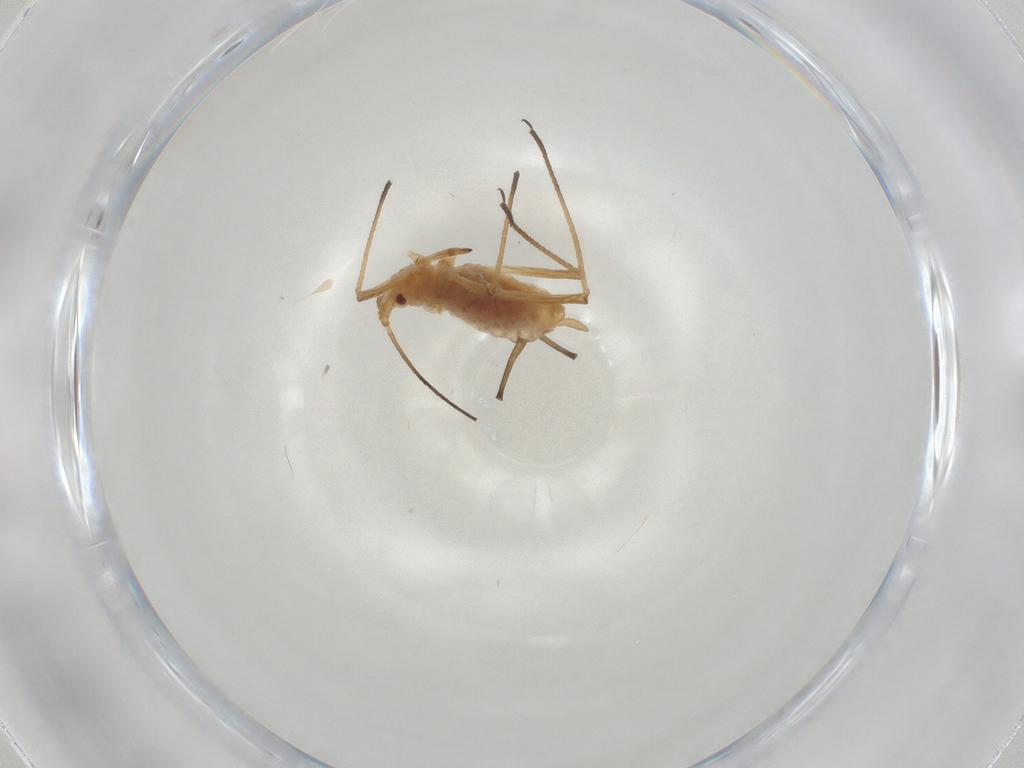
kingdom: Animalia
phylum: Arthropoda
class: Insecta
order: Hemiptera
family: Aphididae
